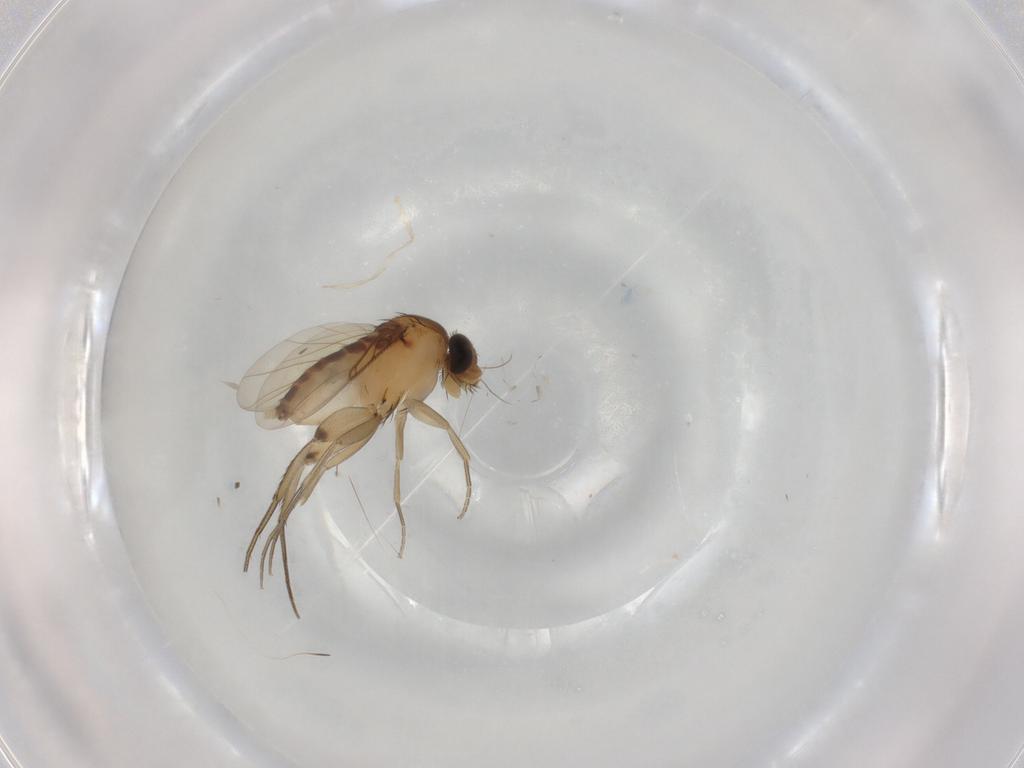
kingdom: Animalia
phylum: Arthropoda
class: Insecta
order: Diptera
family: Phoridae
